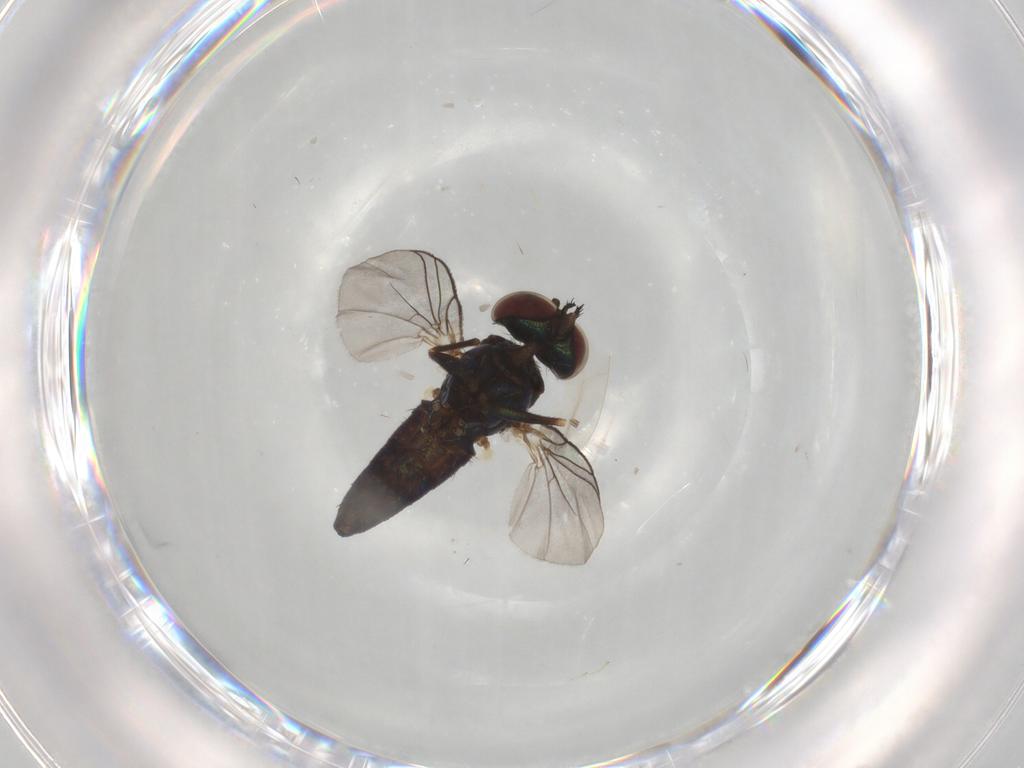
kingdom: Animalia
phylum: Arthropoda
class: Insecta
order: Diptera
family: Dolichopodidae
